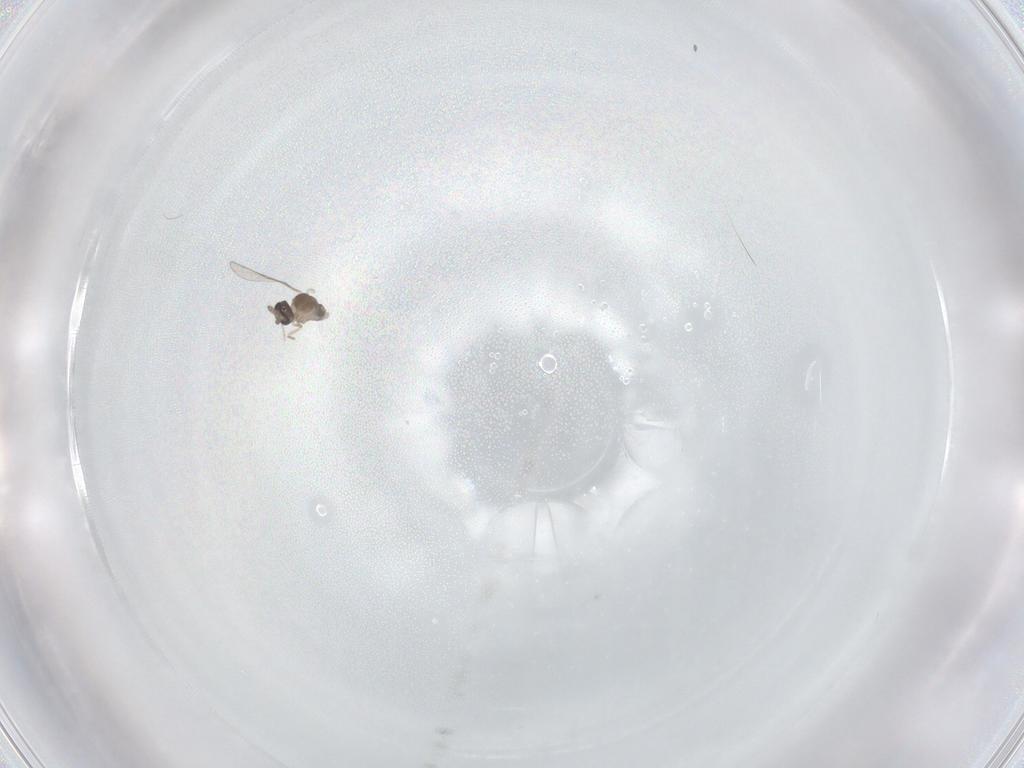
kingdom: Animalia
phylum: Arthropoda
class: Insecta
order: Diptera
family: Cecidomyiidae
